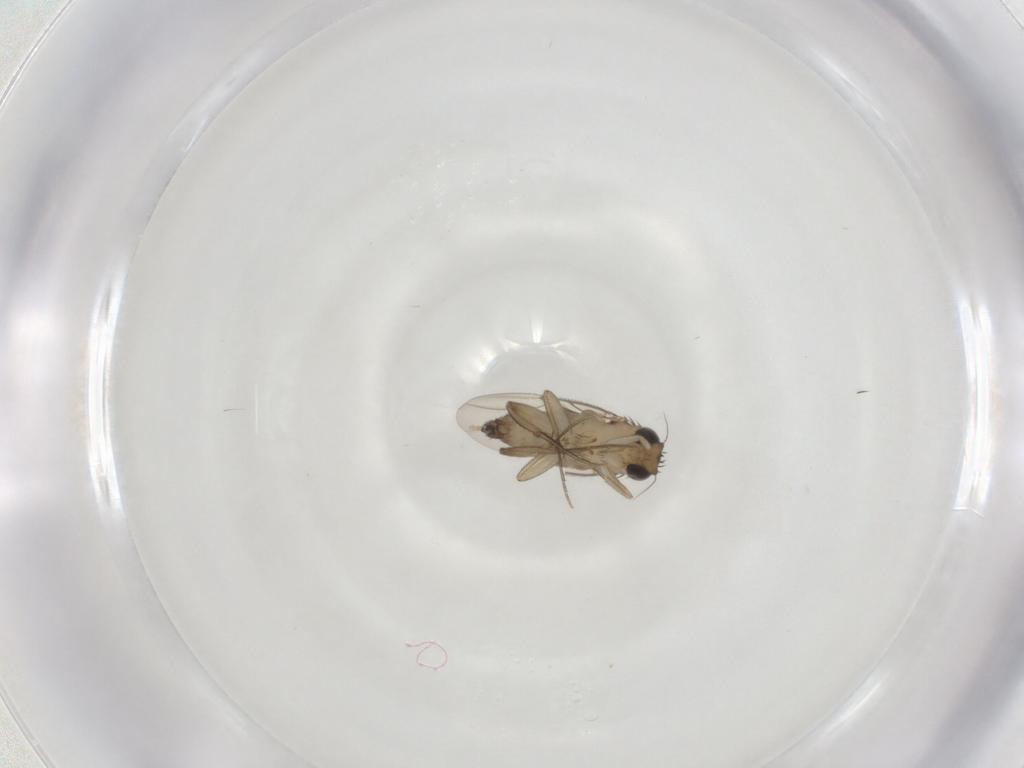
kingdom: Animalia
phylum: Arthropoda
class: Insecta
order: Diptera
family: Phoridae
